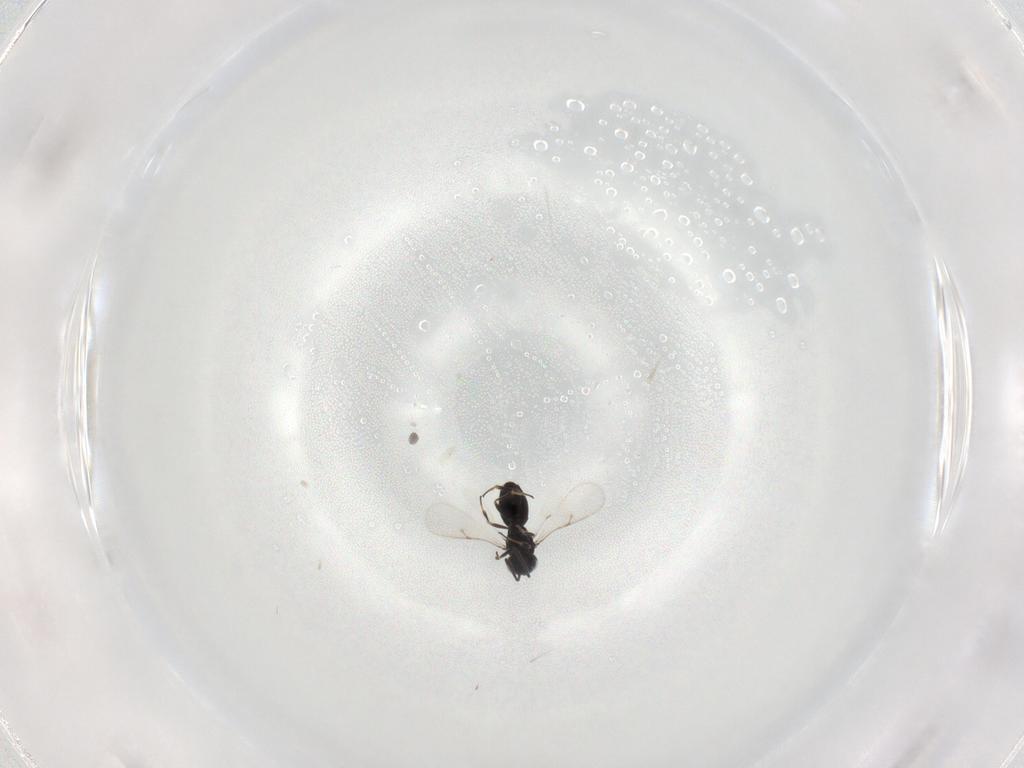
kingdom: Animalia
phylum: Arthropoda
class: Insecta
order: Hymenoptera
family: Scelionidae
